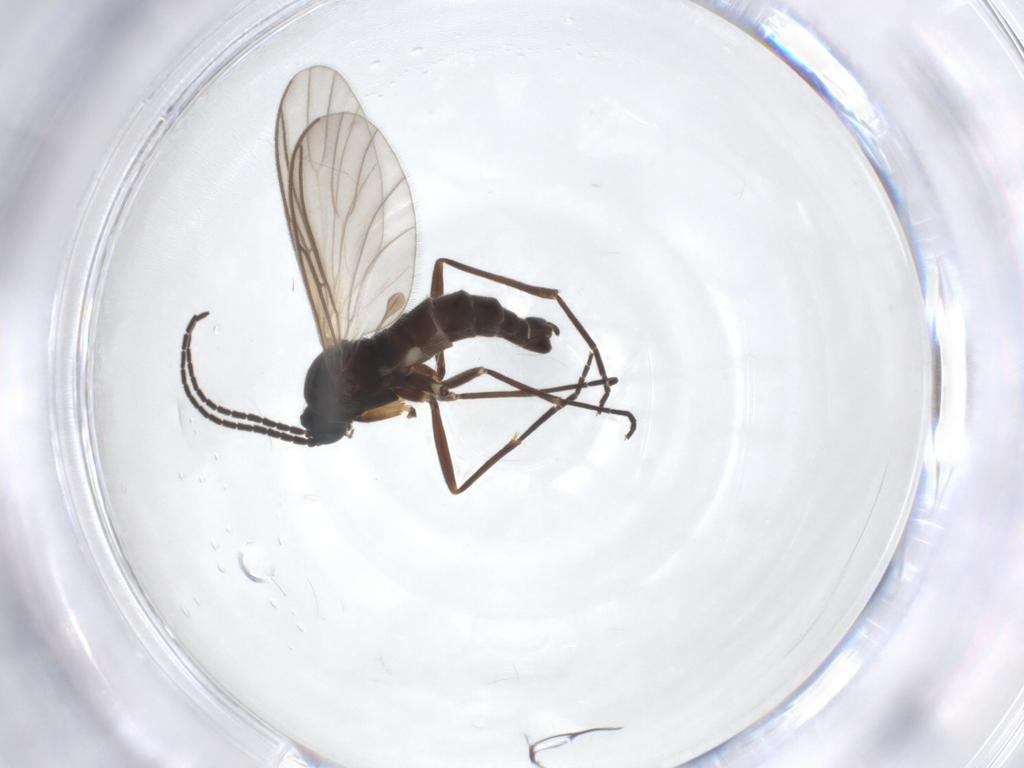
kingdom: Animalia
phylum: Arthropoda
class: Insecta
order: Diptera
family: Sciaridae
